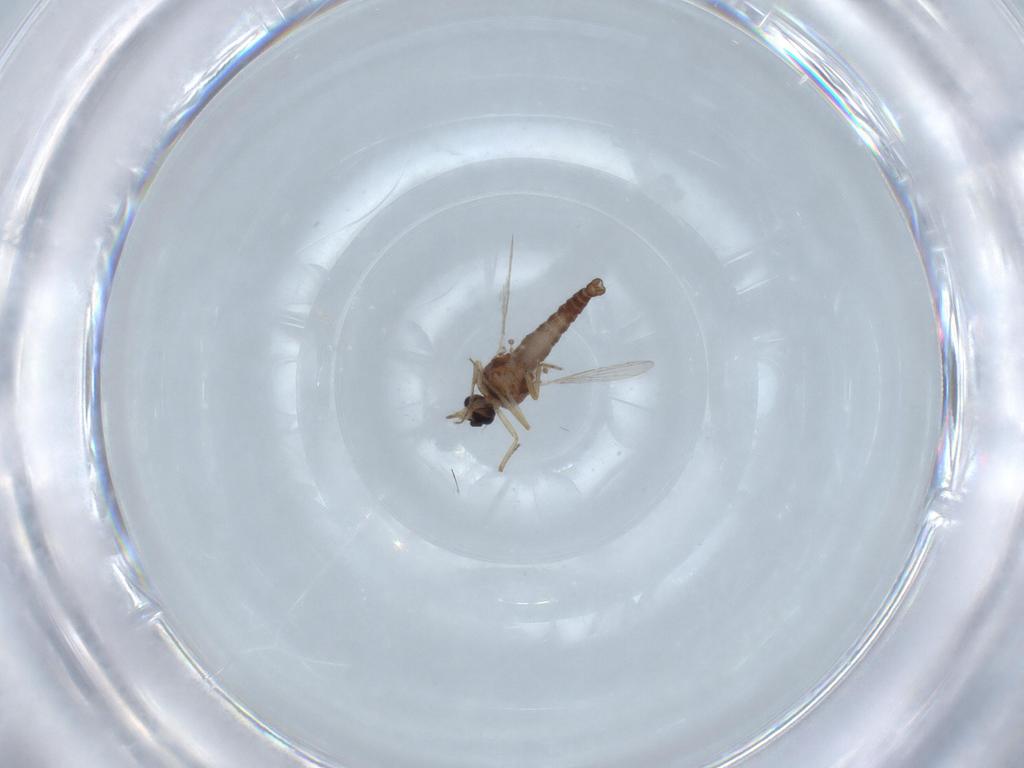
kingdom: Animalia
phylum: Arthropoda
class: Insecta
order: Diptera
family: Ceratopogonidae
